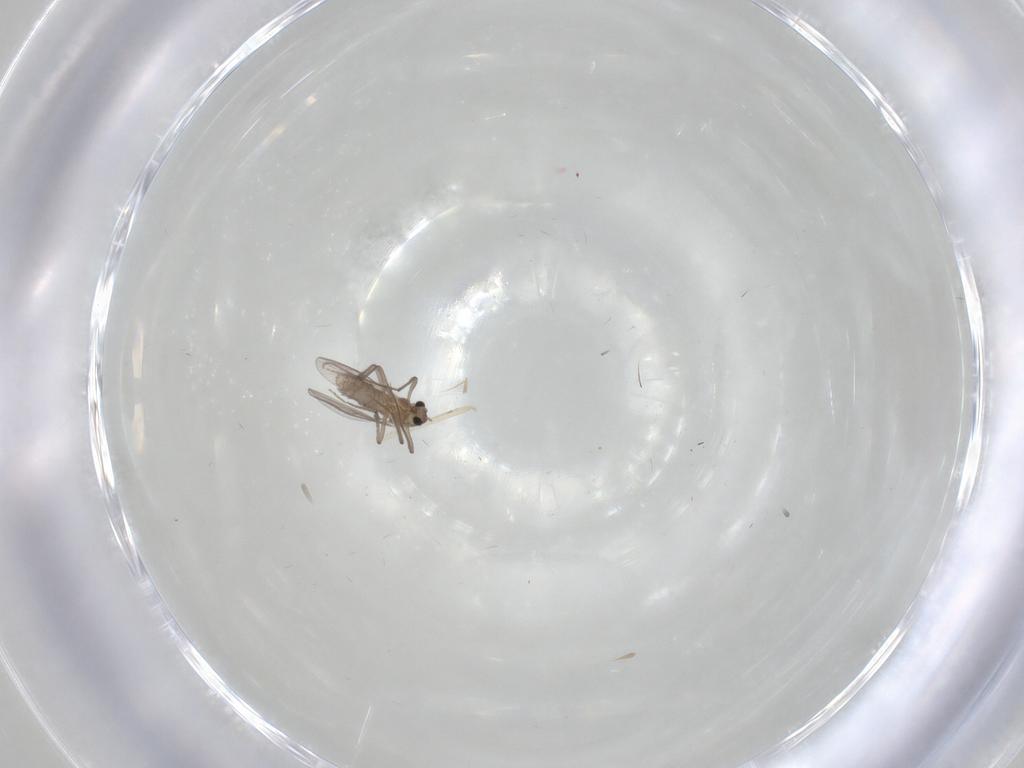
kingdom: Animalia
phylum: Arthropoda
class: Insecta
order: Diptera
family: Chironomidae
